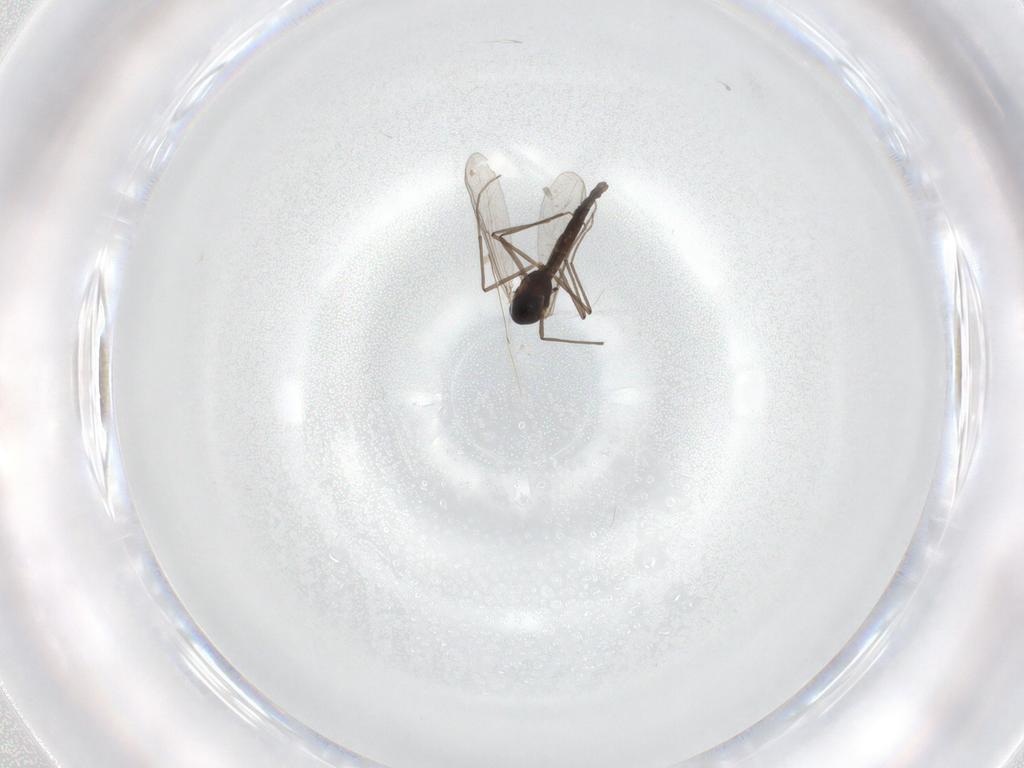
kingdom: Animalia
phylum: Arthropoda
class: Insecta
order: Diptera
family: Chironomidae
